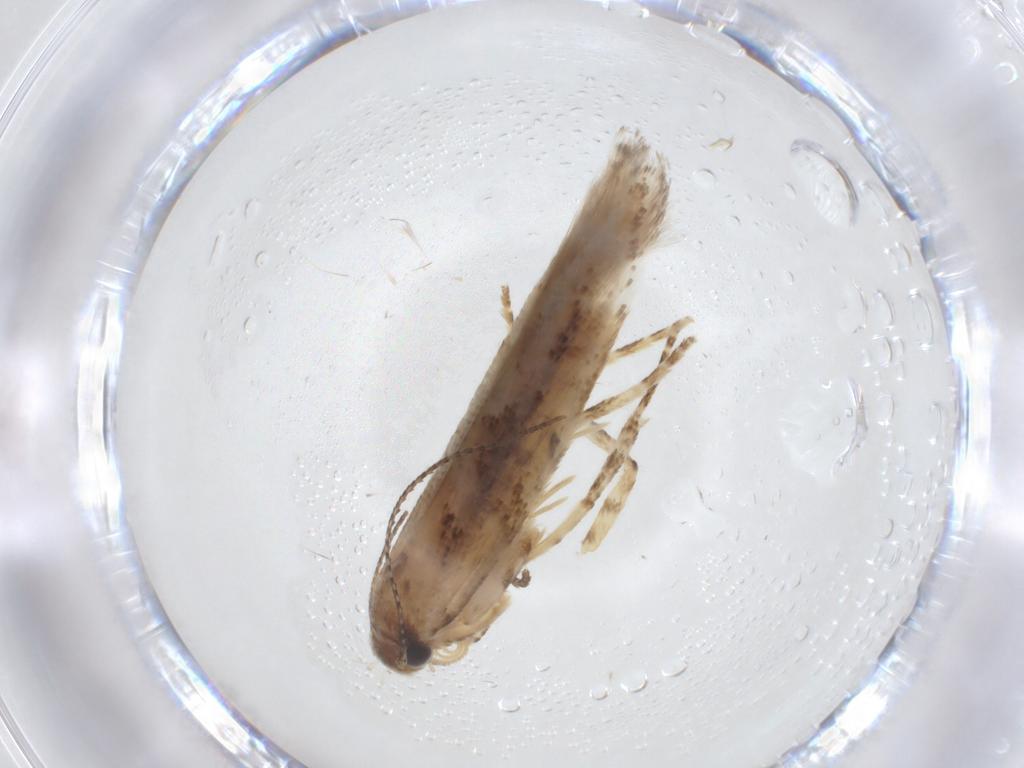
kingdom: Animalia
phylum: Arthropoda
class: Insecta
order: Lepidoptera
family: Gelechiidae
